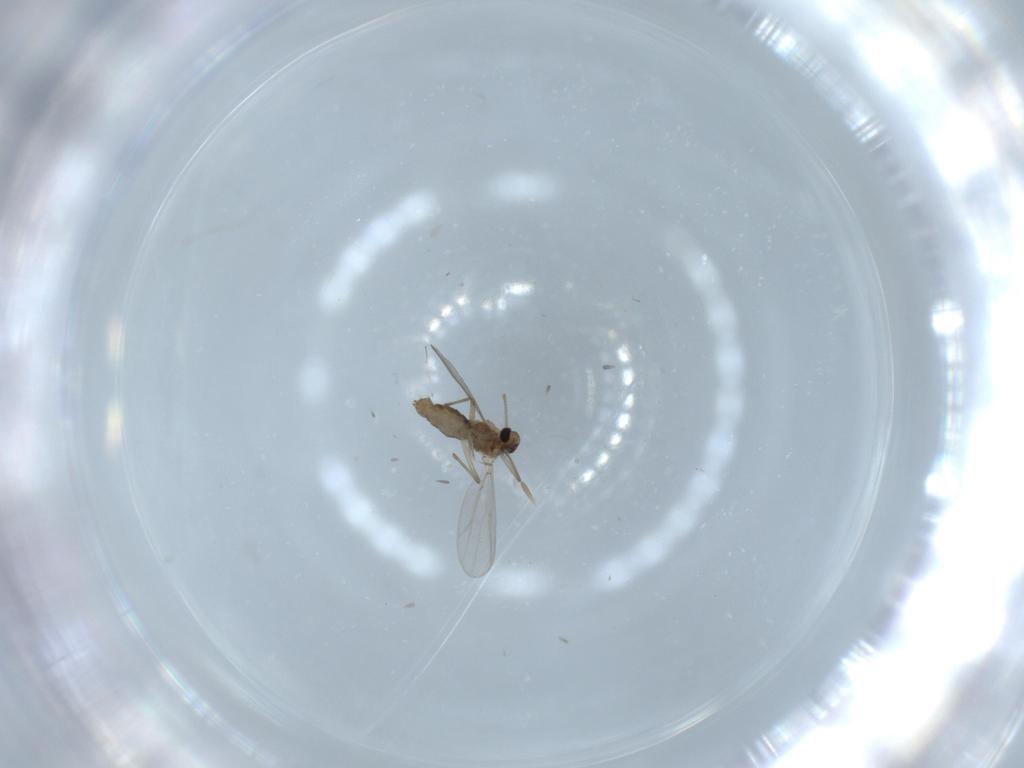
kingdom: Animalia
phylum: Arthropoda
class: Insecta
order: Diptera
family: Chironomidae
